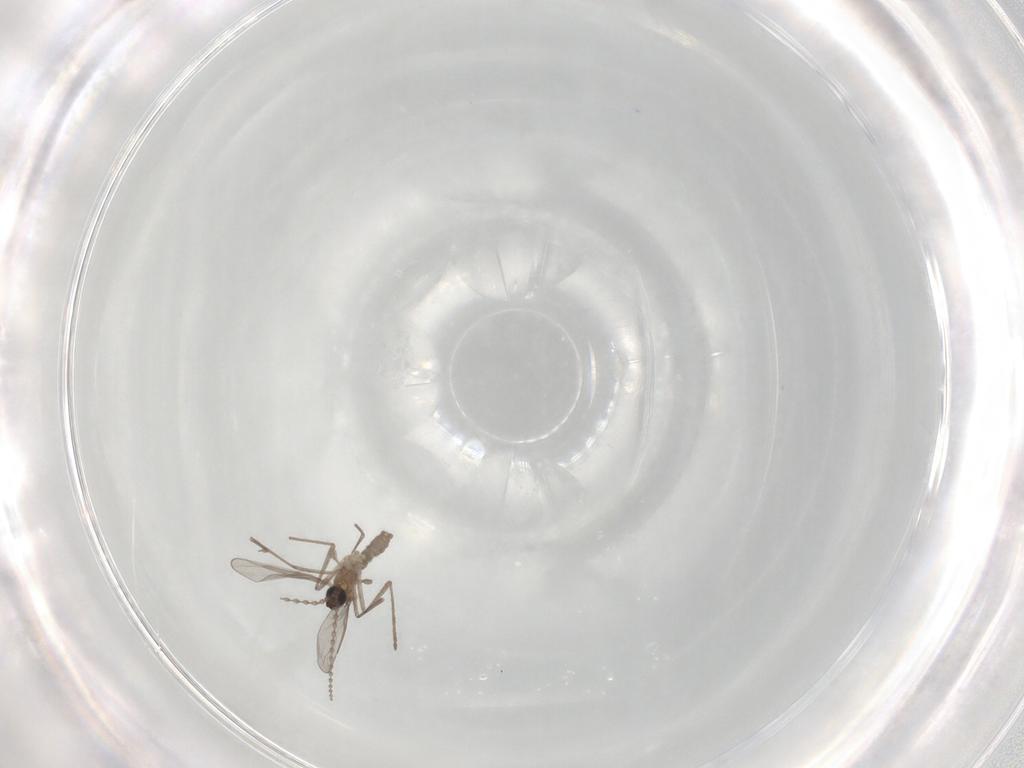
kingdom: Animalia
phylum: Arthropoda
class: Insecta
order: Diptera
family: Cecidomyiidae
